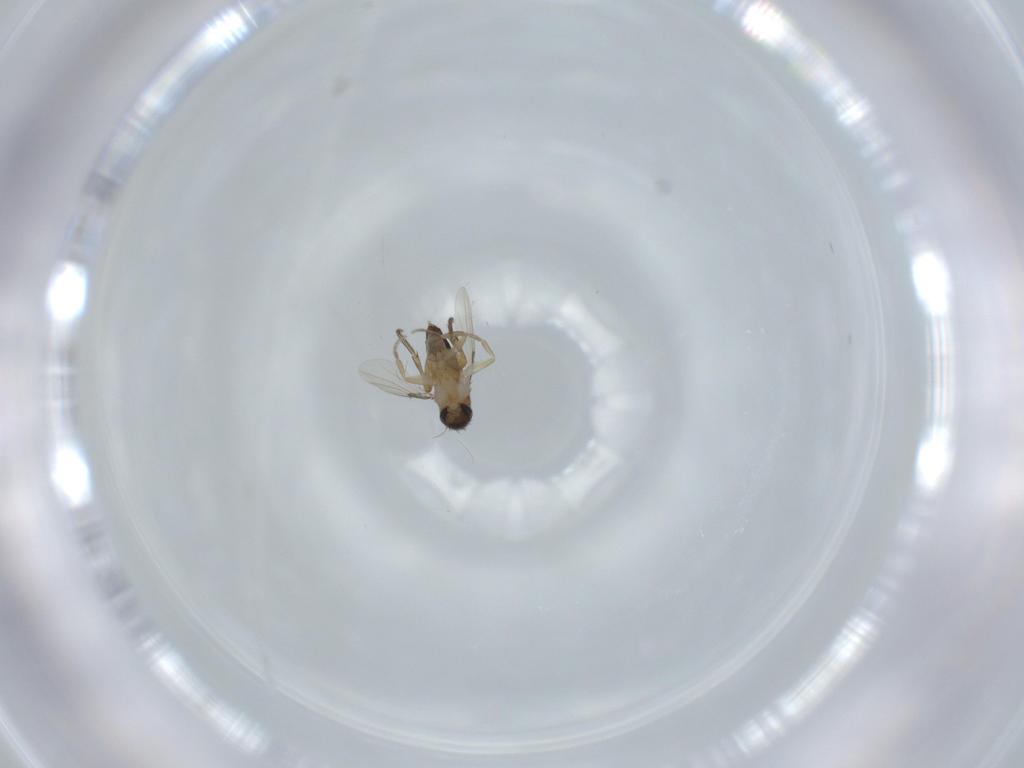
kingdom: Animalia
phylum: Arthropoda
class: Insecta
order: Diptera
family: Phoridae
